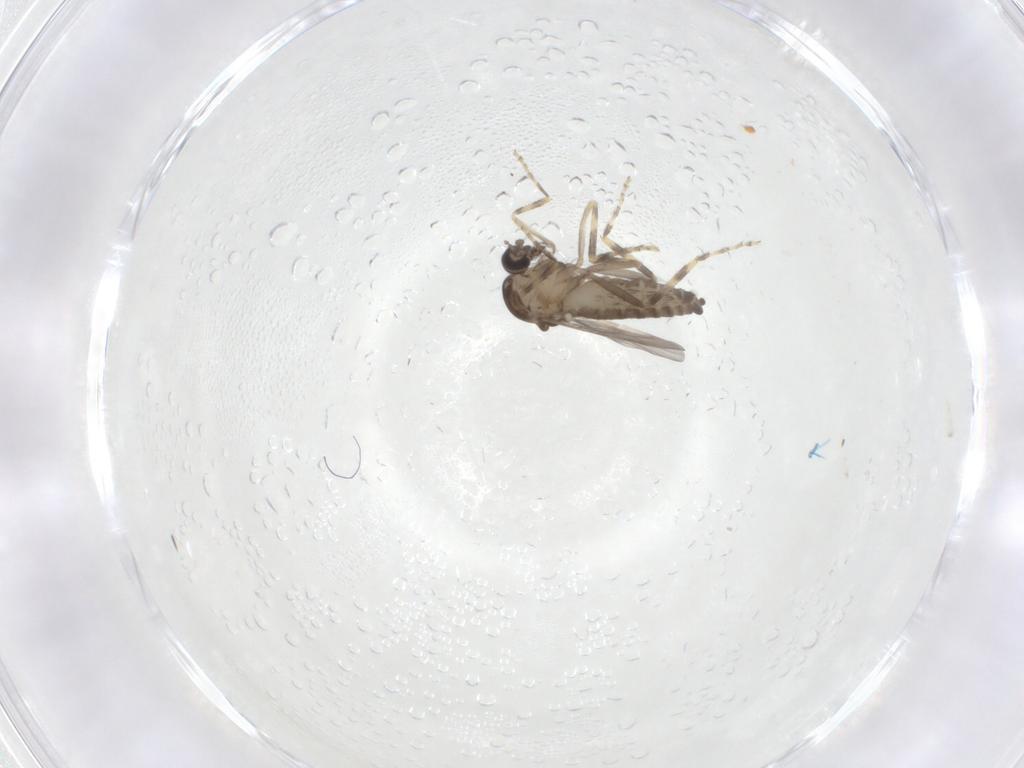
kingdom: Animalia
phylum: Arthropoda
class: Insecta
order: Diptera
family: Ceratopogonidae
